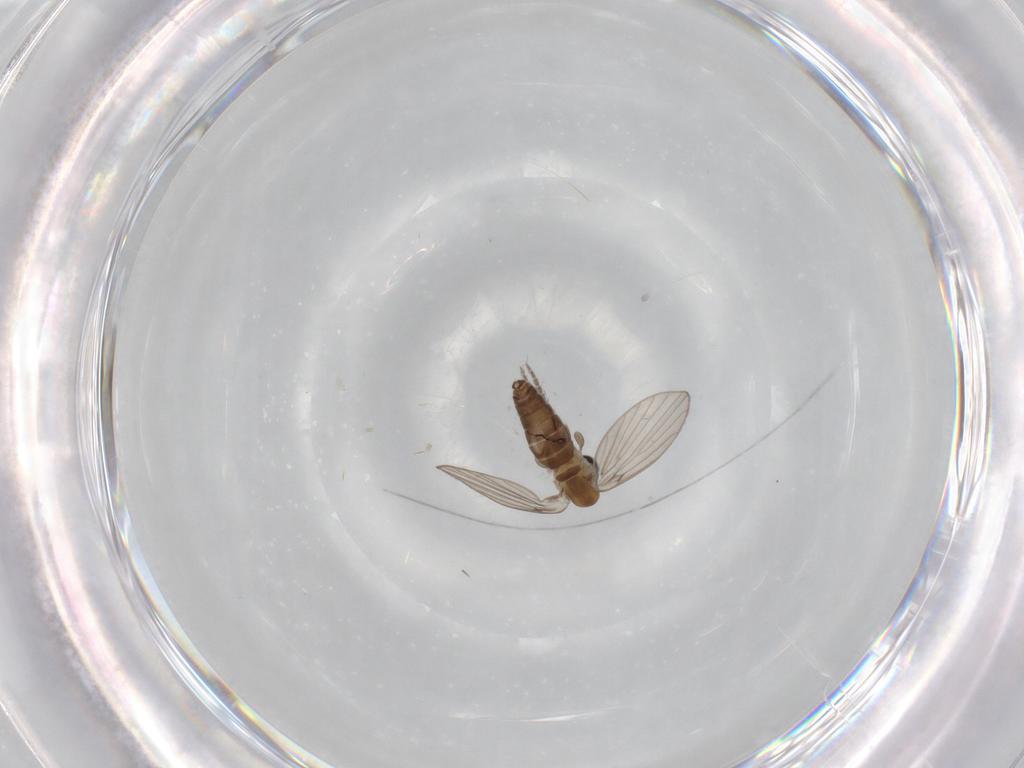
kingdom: Animalia
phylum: Arthropoda
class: Insecta
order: Diptera
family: Psychodidae
